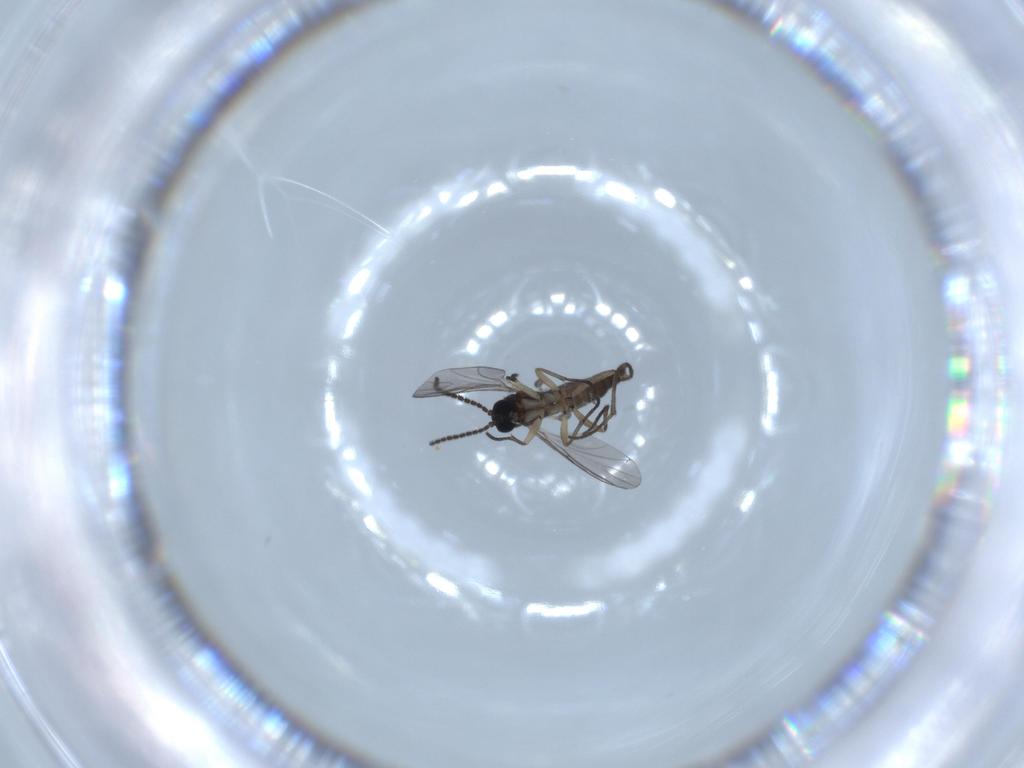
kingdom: Animalia
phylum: Arthropoda
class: Insecta
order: Diptera
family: Sciaridae
